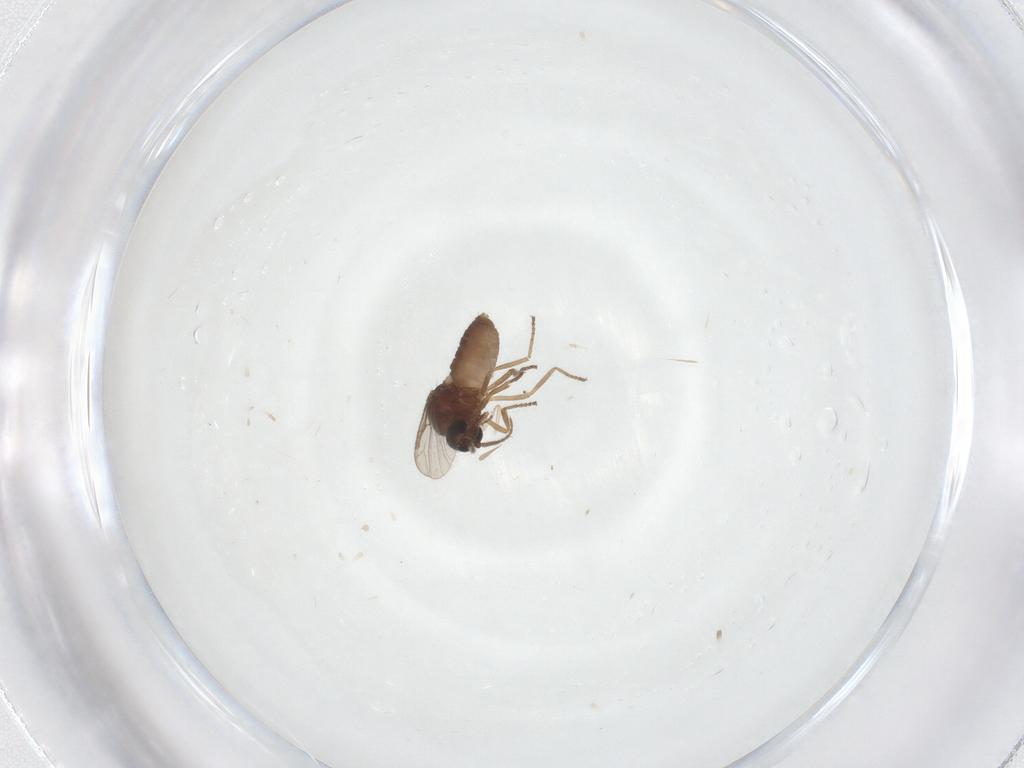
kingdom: Animalia
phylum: Arthropoda
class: Insecta
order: Diptera
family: Ceratopogonidae
